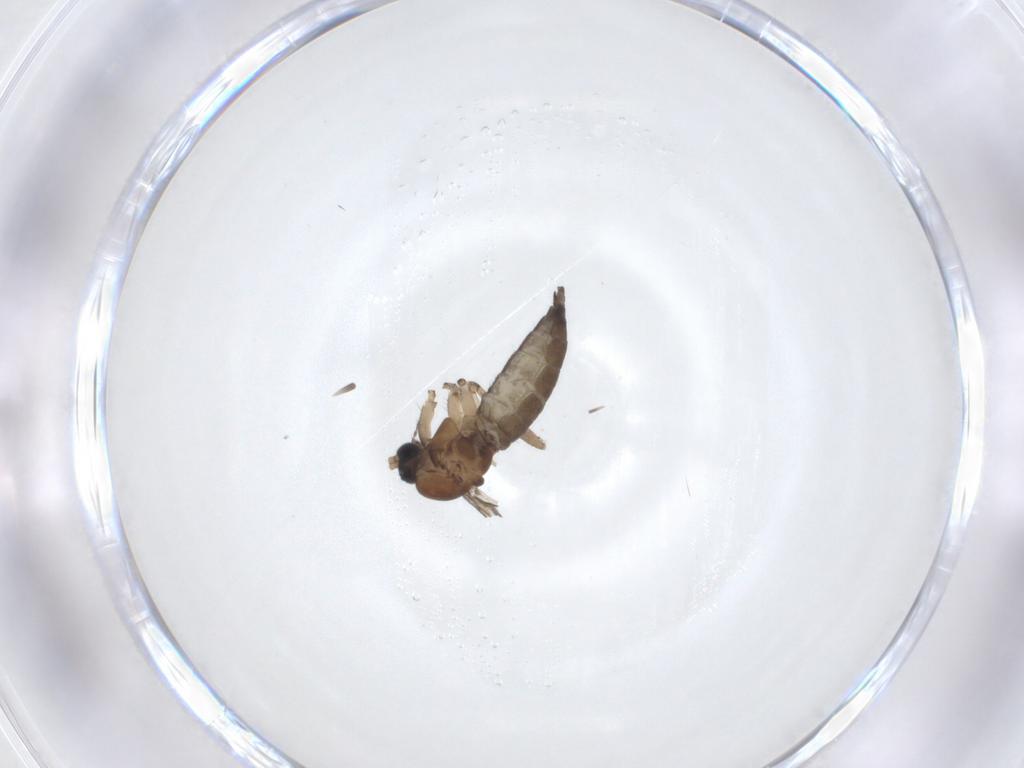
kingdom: Animalia
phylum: Arthropoda
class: Insecta
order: Diptera
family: Sciaridae
